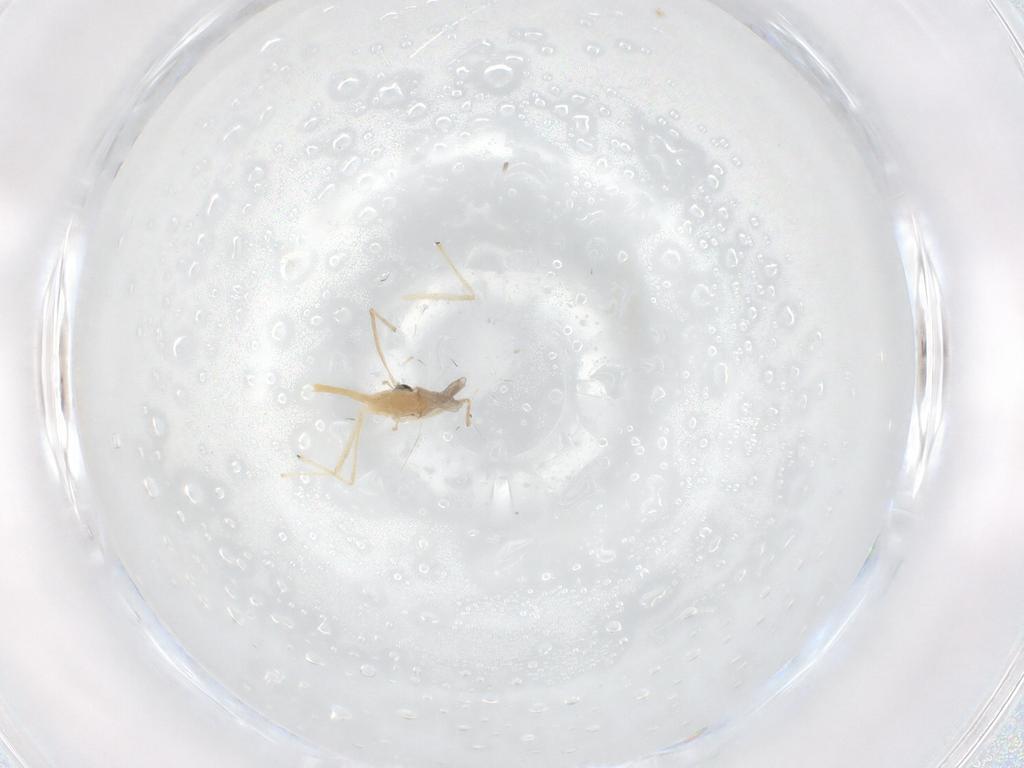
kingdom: Animalia
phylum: Arthropoda
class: Insecta
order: Diptera
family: Chironomidae
